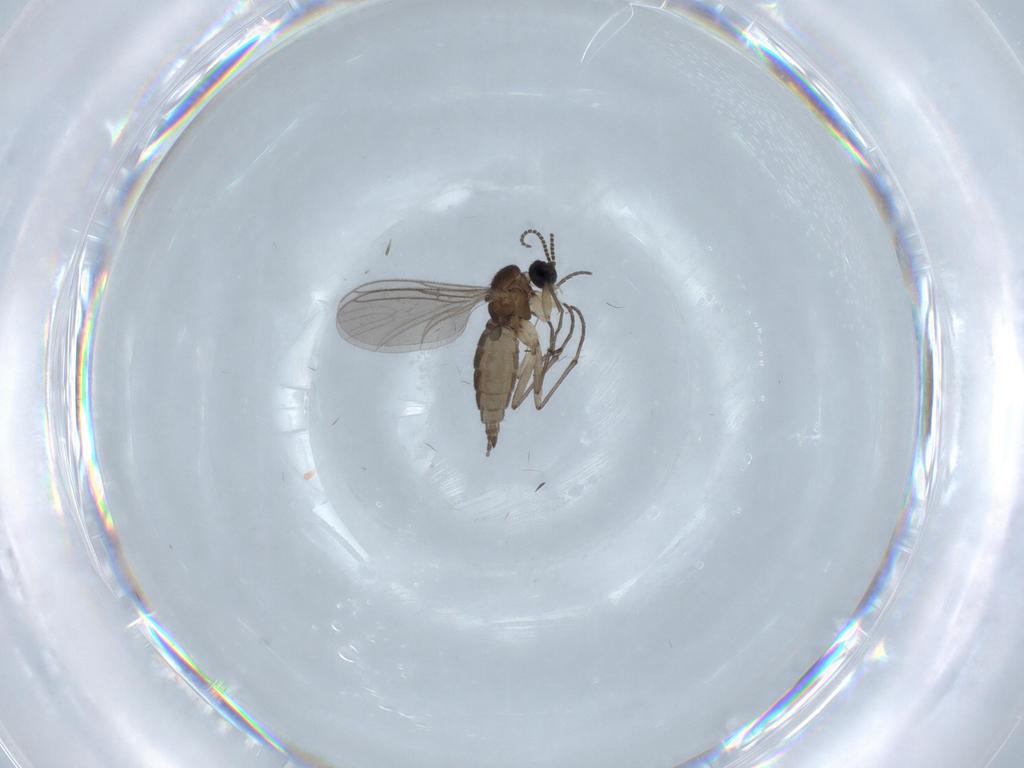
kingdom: Animalia
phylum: Arthropoda
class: Insecta
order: Diptera
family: Sciaridae
